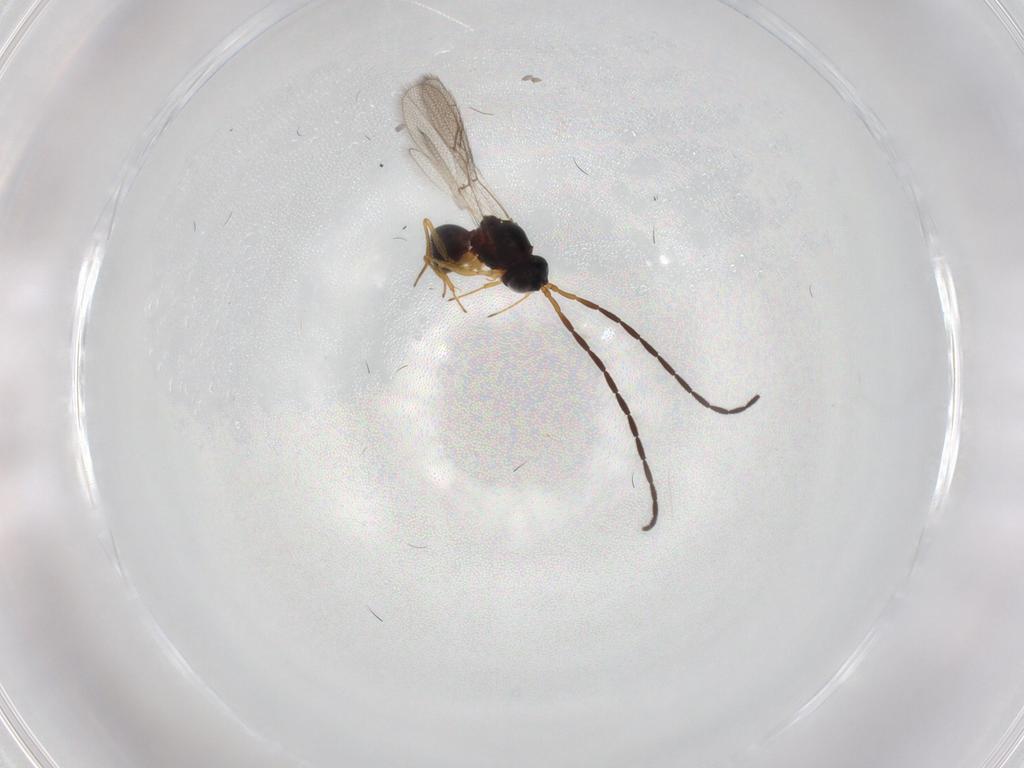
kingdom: Animalia
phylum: Arthropoda
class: Insecta
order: Hymenoptera
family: Figitidae
